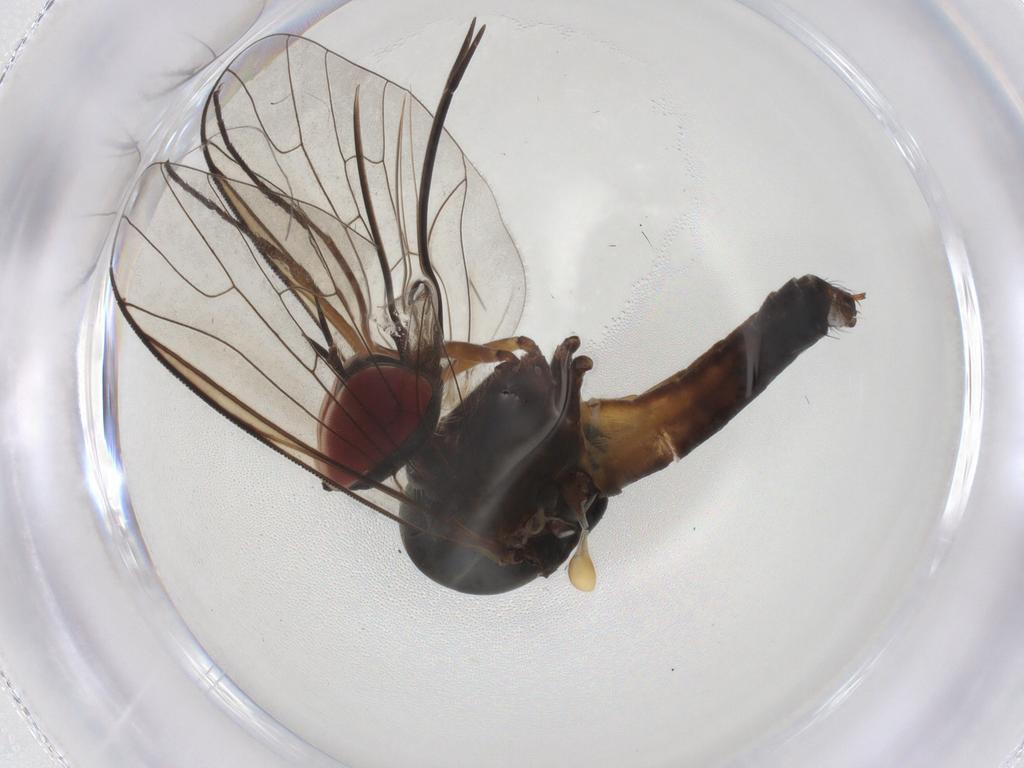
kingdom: Animalia
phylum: Arthropoda
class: Insecta
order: Diptera
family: Bombyliidae
